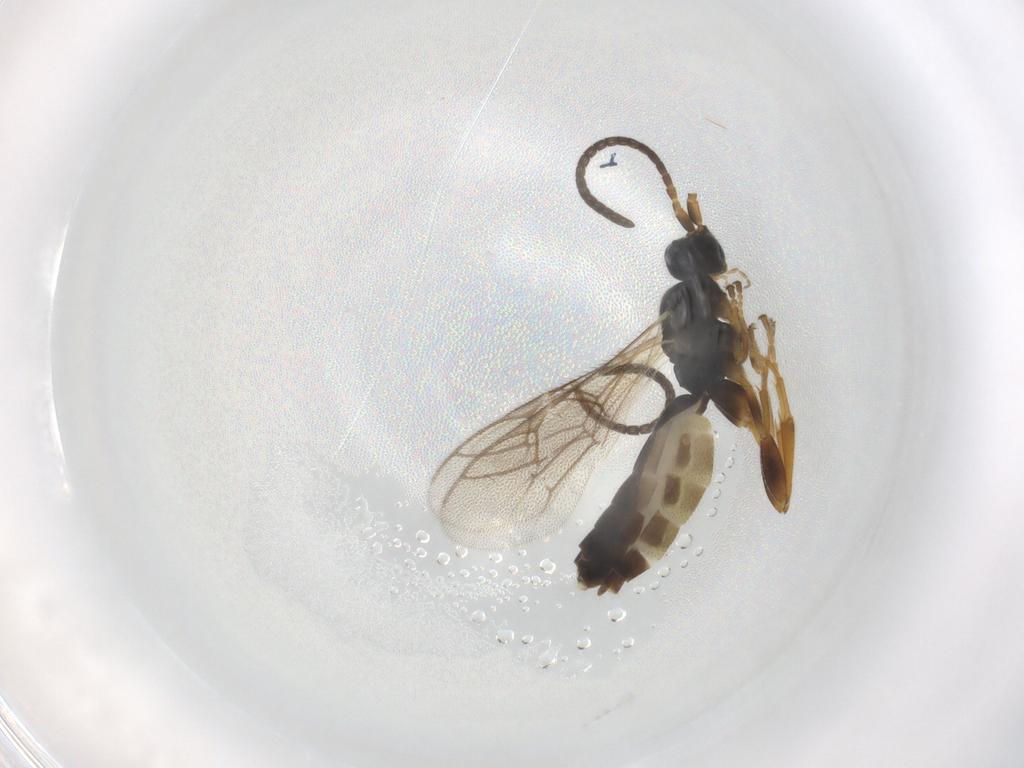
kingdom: Animalia
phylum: Arthropoda
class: Insecta
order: Hymenoptera
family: Ichneumonidae
